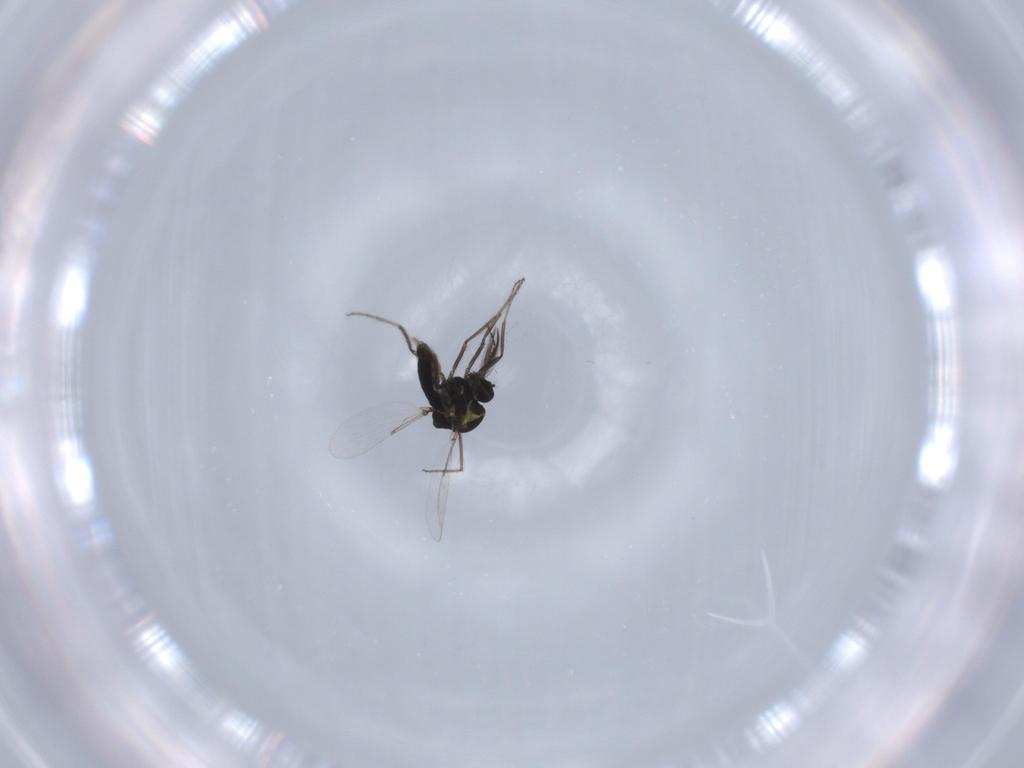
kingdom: Animalia
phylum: Arthropoda
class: Insecta
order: Diptera
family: Ceratopogonidae
